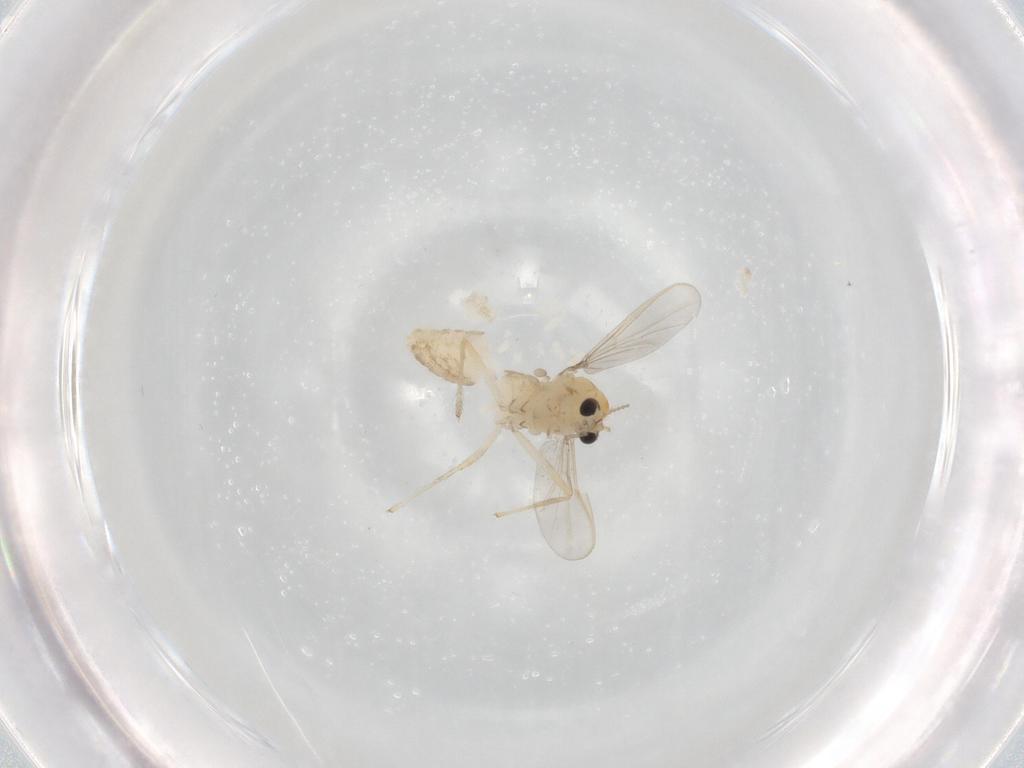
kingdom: Animalia
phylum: Arthropoda
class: Insecta
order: Diptera
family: Chironomidae
